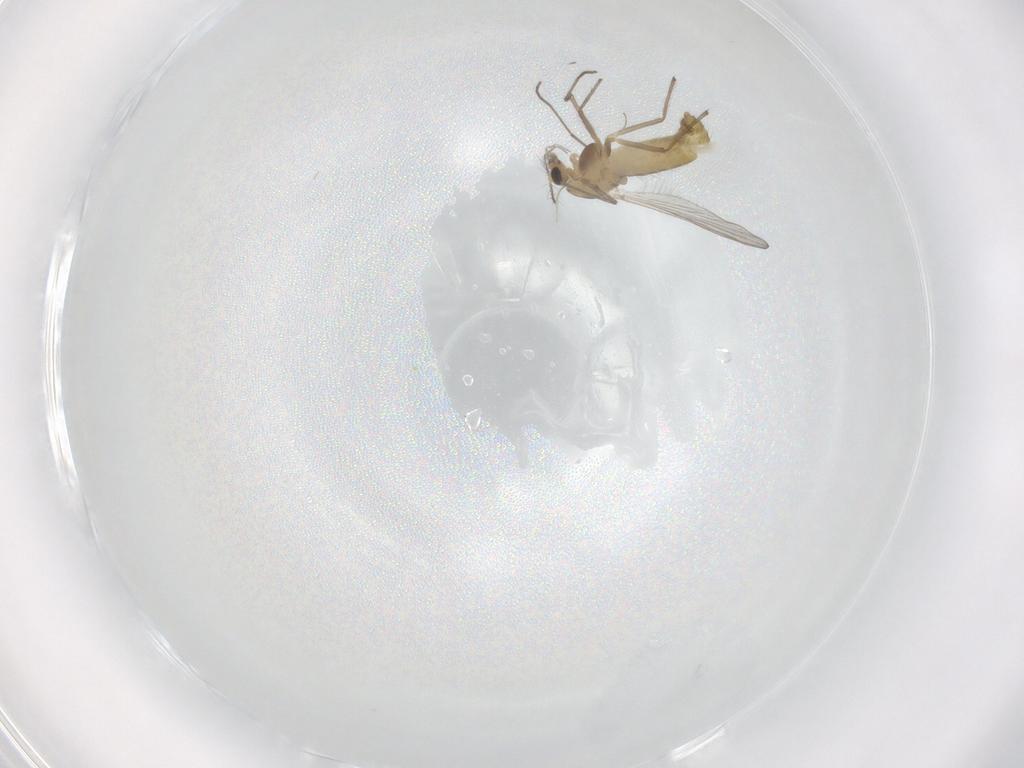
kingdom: Animalia
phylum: Arthropoda
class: Insecta
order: Diptera
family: Chironomidae
